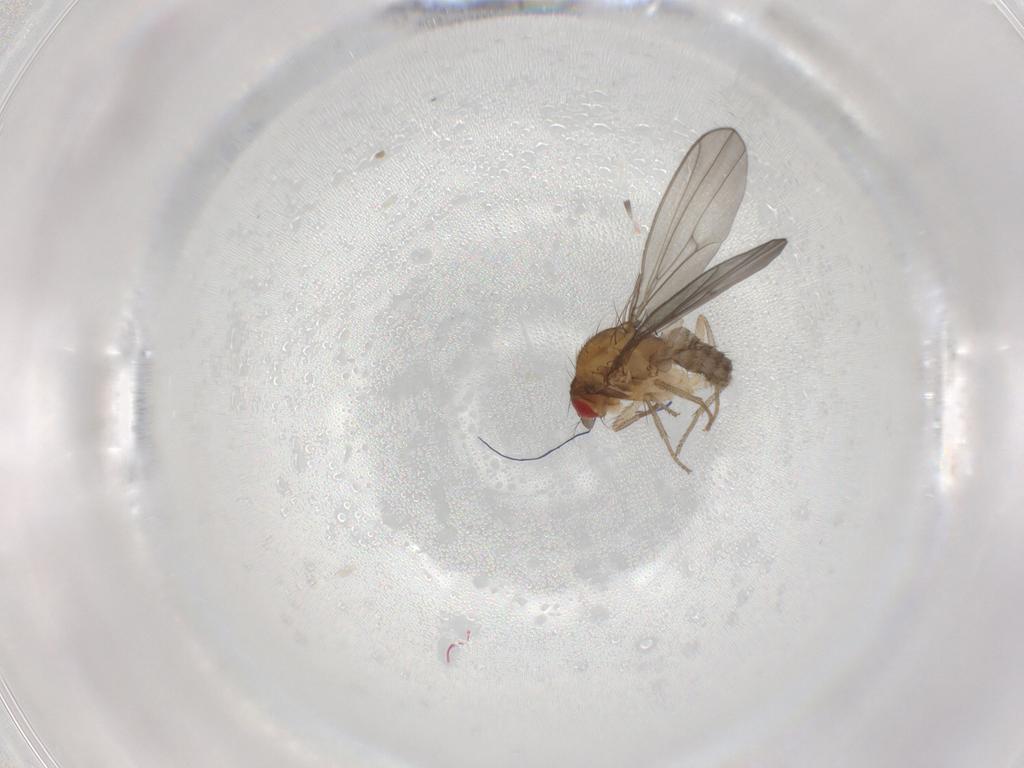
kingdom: Animalia
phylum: Arthropoda
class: Insecta
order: Diptera
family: Drosophilidae
